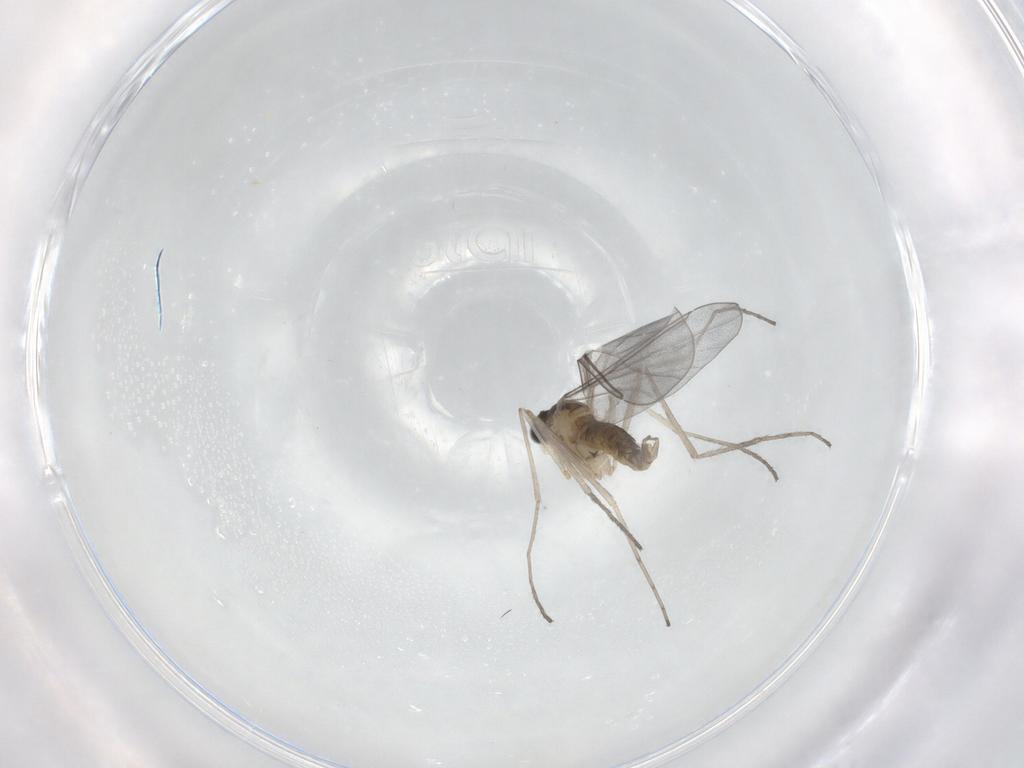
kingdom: Animalia
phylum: Arthropoda
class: Insecta
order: Diptera
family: Cecidomyiidae
